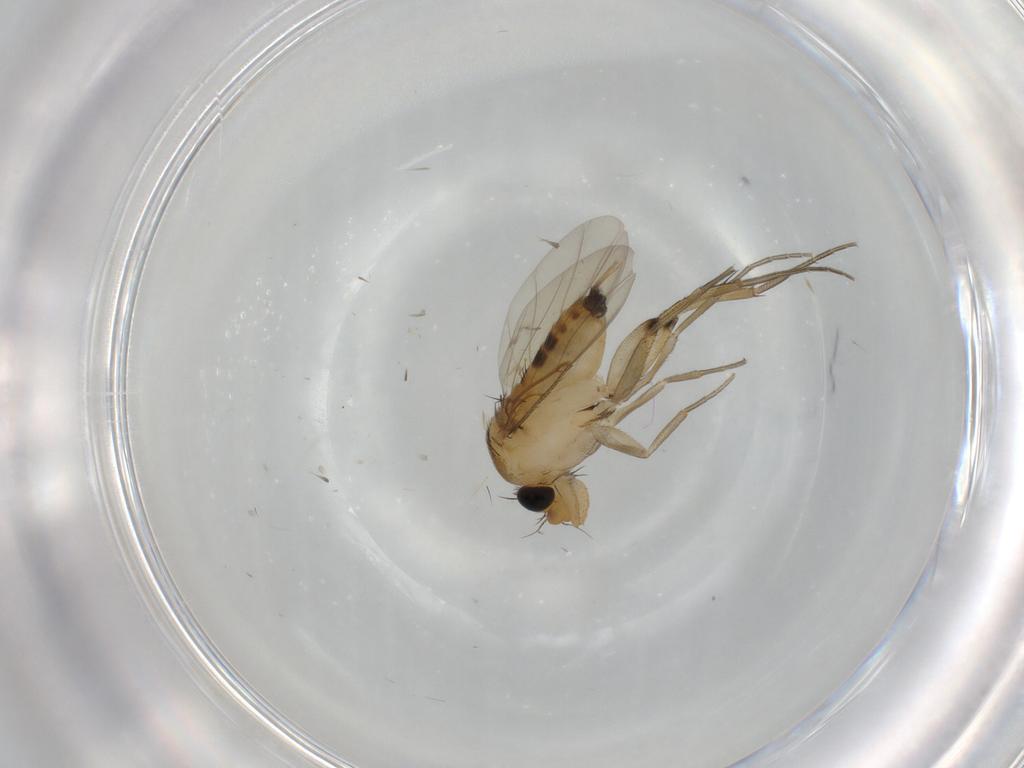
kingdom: Animalia
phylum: Arthropoda
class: Insecta
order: Diptera
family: Phoridae
